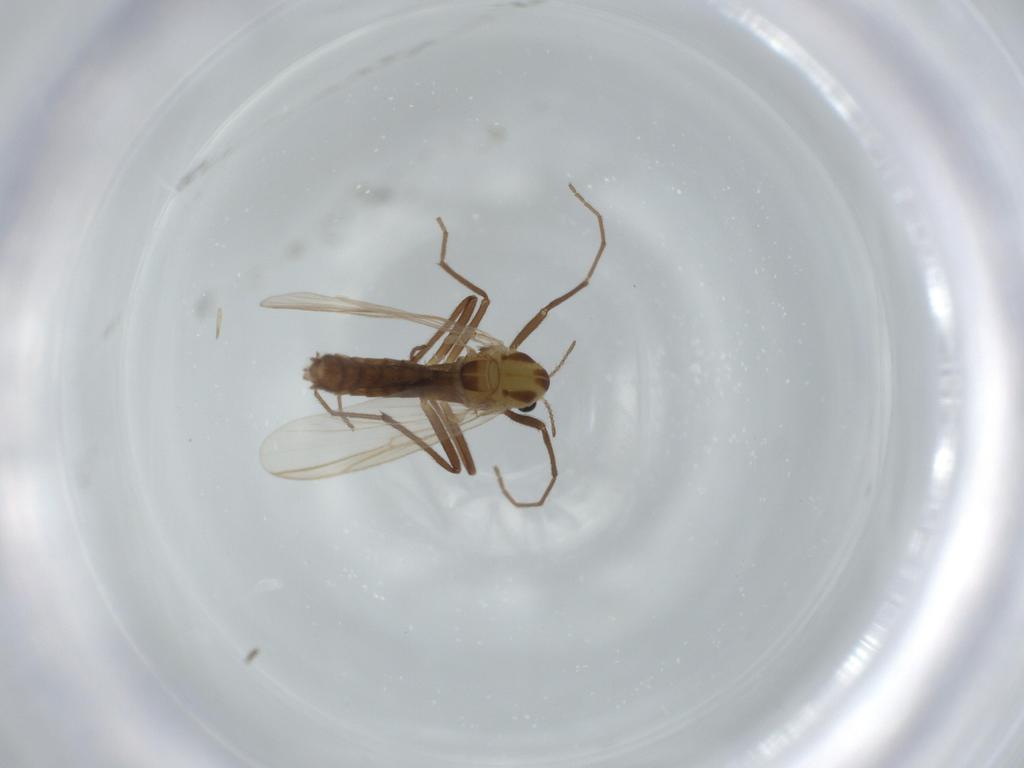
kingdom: Animalia
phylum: Arthropoda
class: Insecta
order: Diptera
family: Chironomidae
